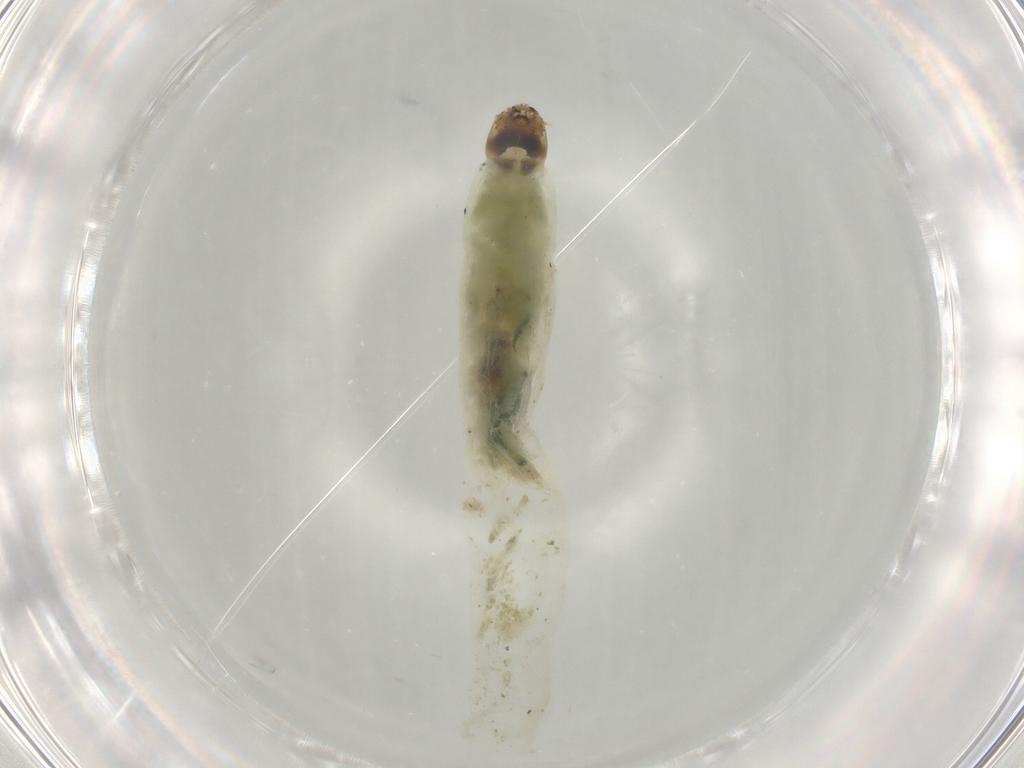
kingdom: Animalia
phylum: Arthropoda
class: Insecta
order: Diptera
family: Chironomidae
